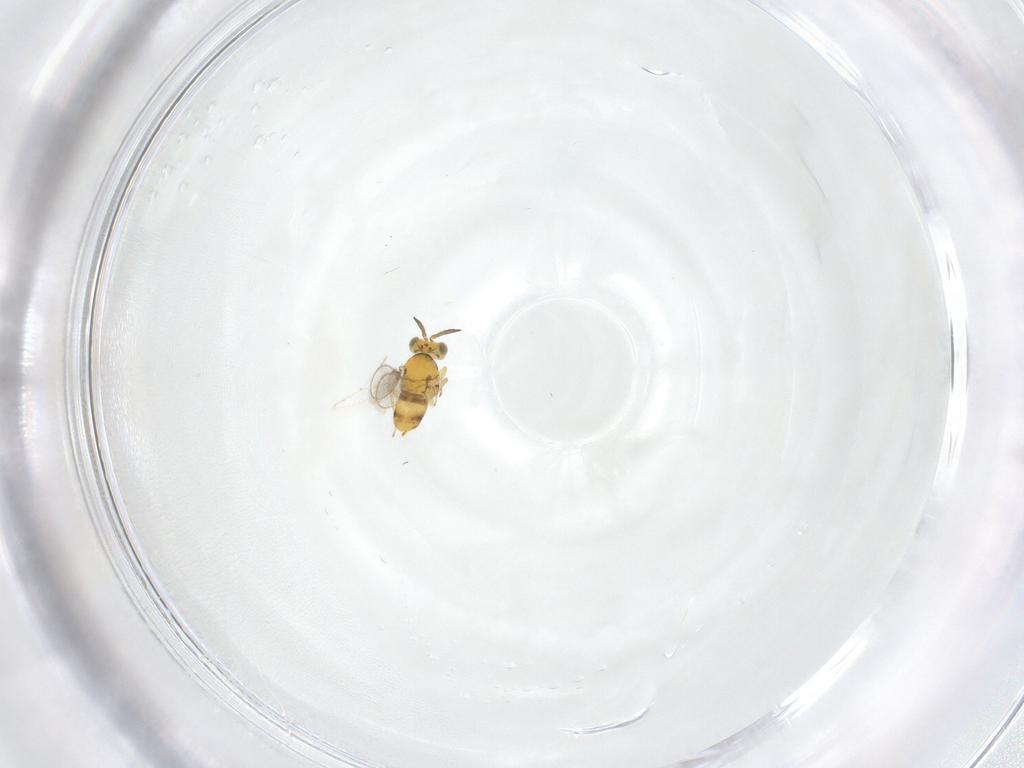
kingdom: Animalia
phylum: Arthropoda
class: Insecta
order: Hymenoptera
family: Aphelinidae
